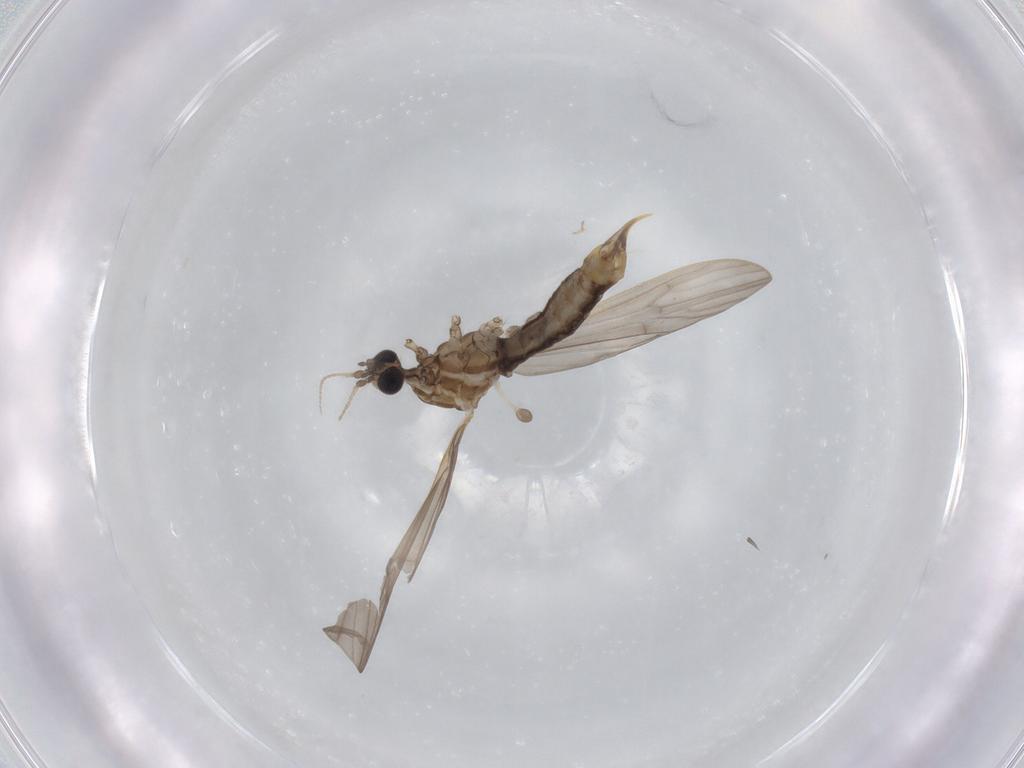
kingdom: Animalia
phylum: Arthropoda
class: Insecta
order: Diptera
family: Limoniidae
